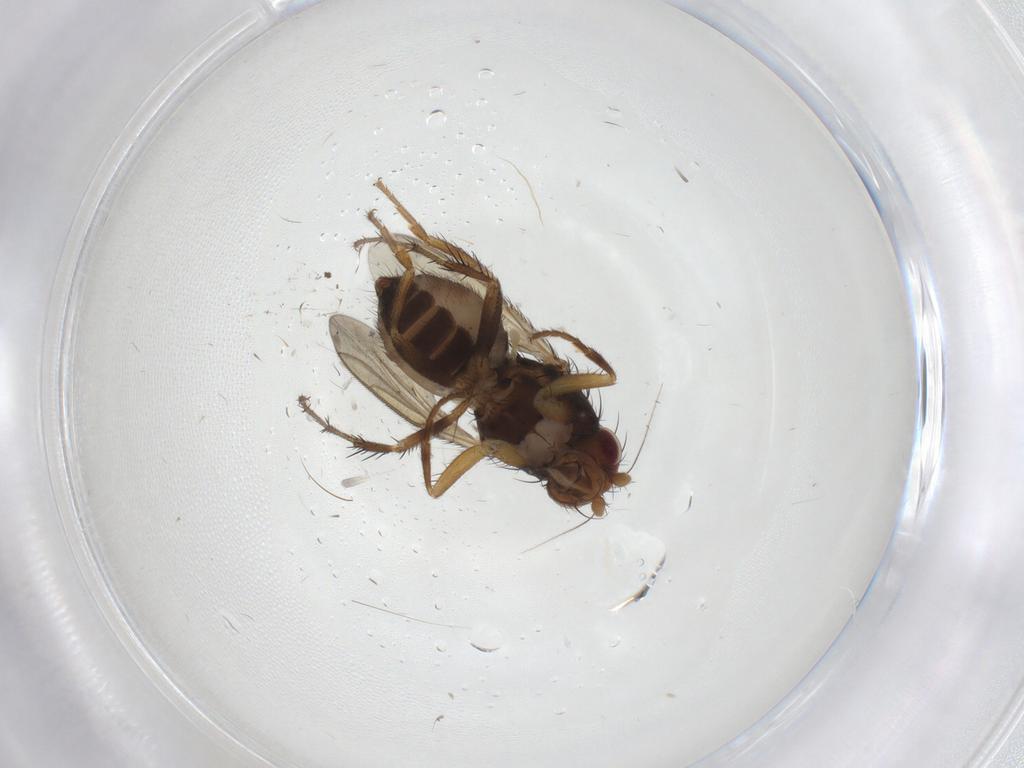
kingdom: Animalia
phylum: Arthropoda
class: Insecta
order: Diptera
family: Sphaeroceridae
